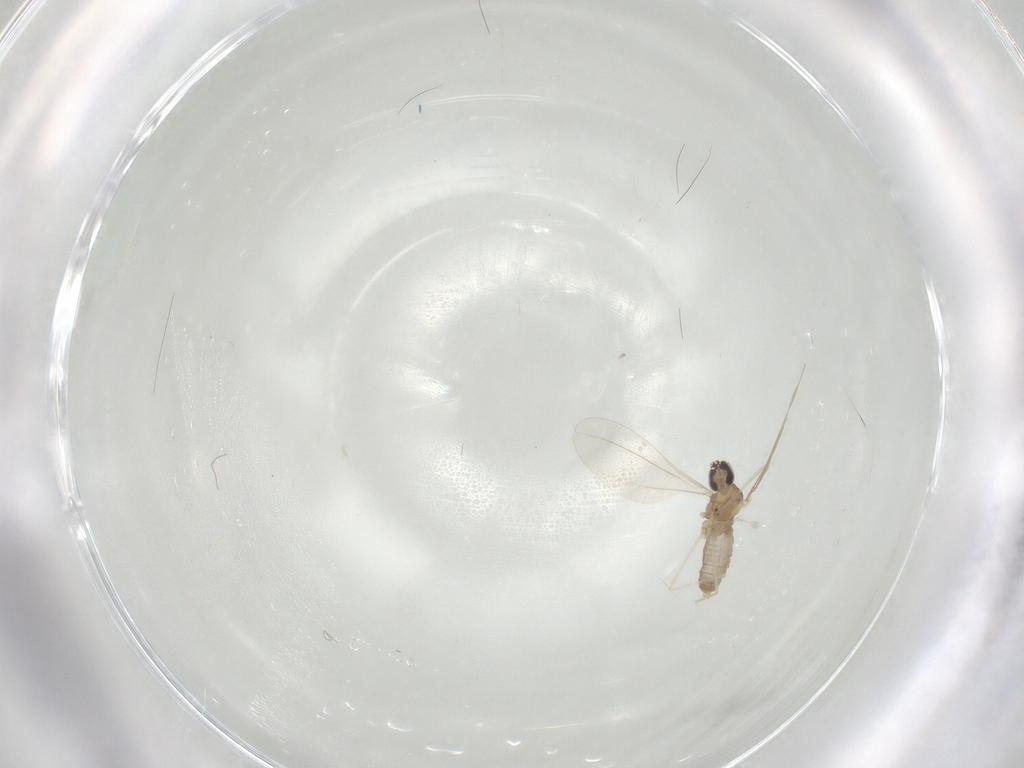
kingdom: Animalia
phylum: Arthropoda
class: Insecta
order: Diptera
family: Cecidomyiidae
